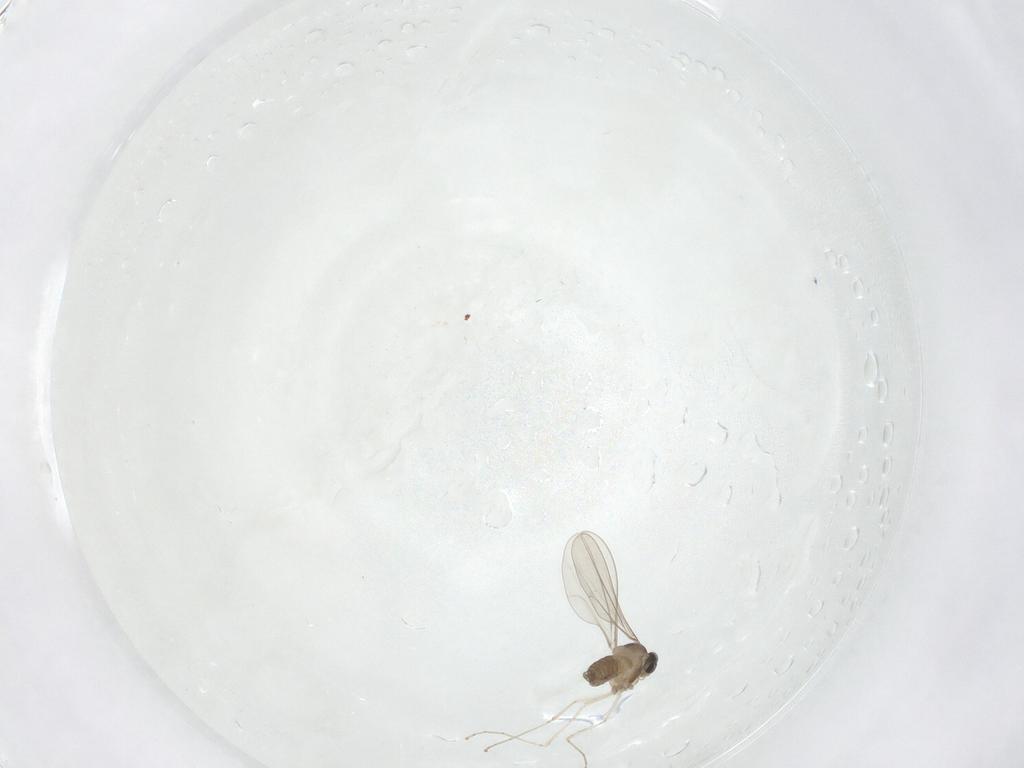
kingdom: Animalia
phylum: Arthropoda
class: Insecta
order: Diptera
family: Cecidomyiidae
